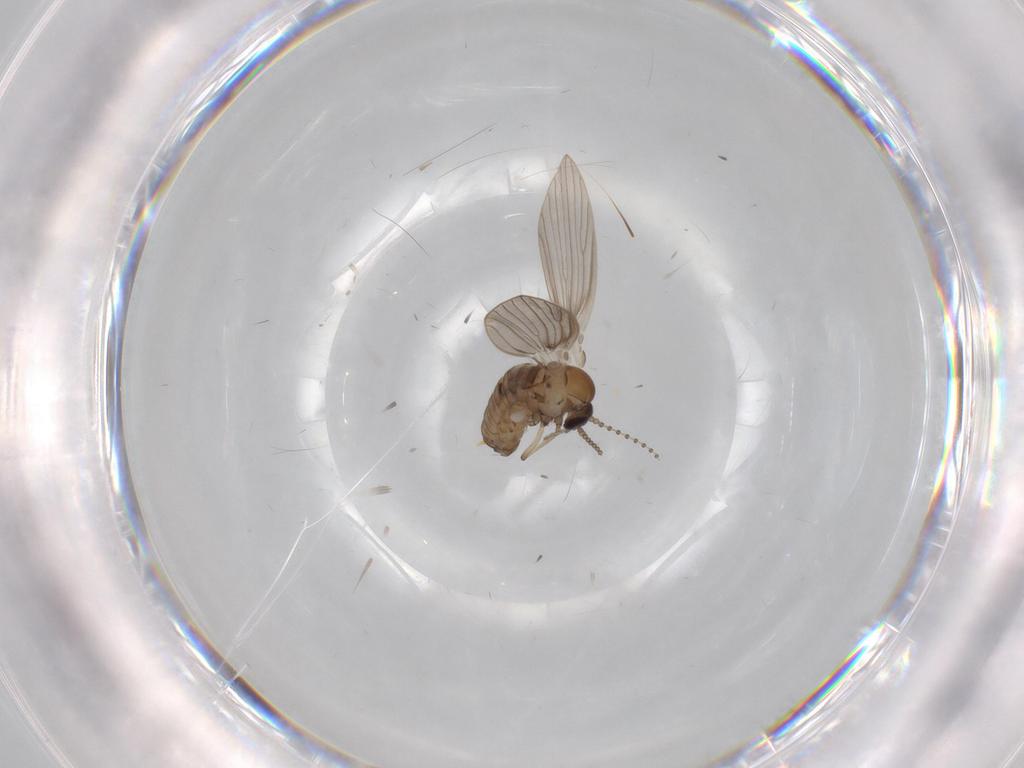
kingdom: Animalia
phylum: Arthropoda
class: Insecta
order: Diptera
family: Psychodidae
